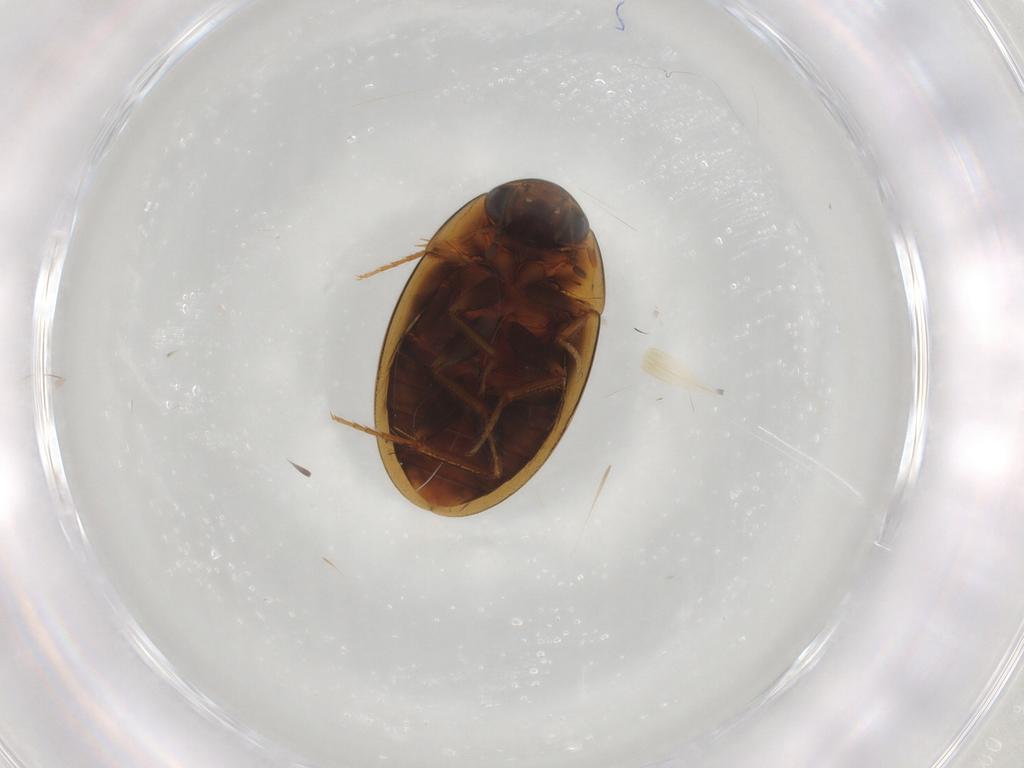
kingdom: Animalia
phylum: Arthropoda
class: Insecta
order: Coleoptera
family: Hydrophilidae
